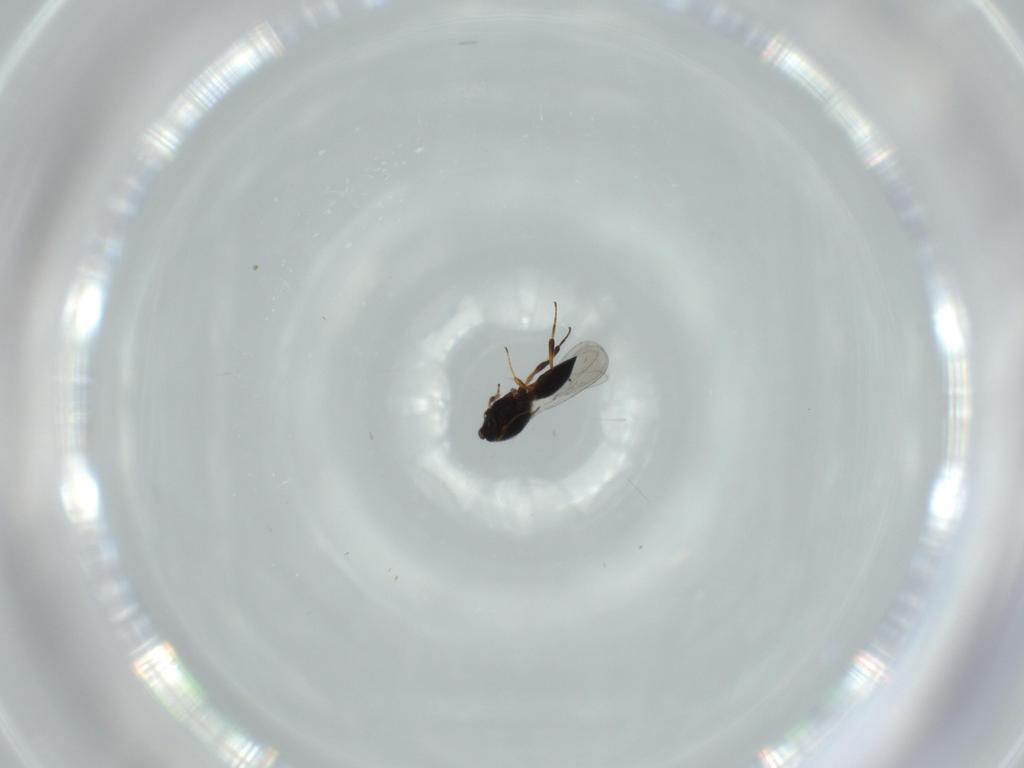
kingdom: Animalia
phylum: Arthropoda
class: Insecta
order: Hymenoptera
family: Platygastridae
